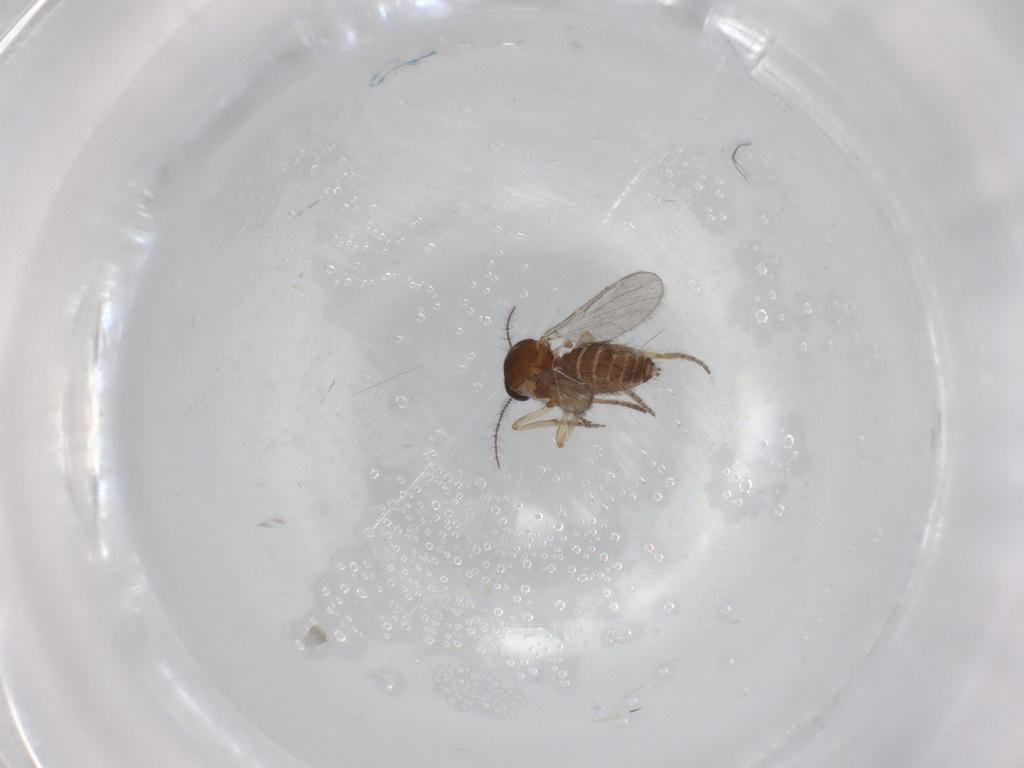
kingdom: Animalia
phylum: Arthropoda
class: Insecta
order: Diptera
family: Ceratopogonidae
